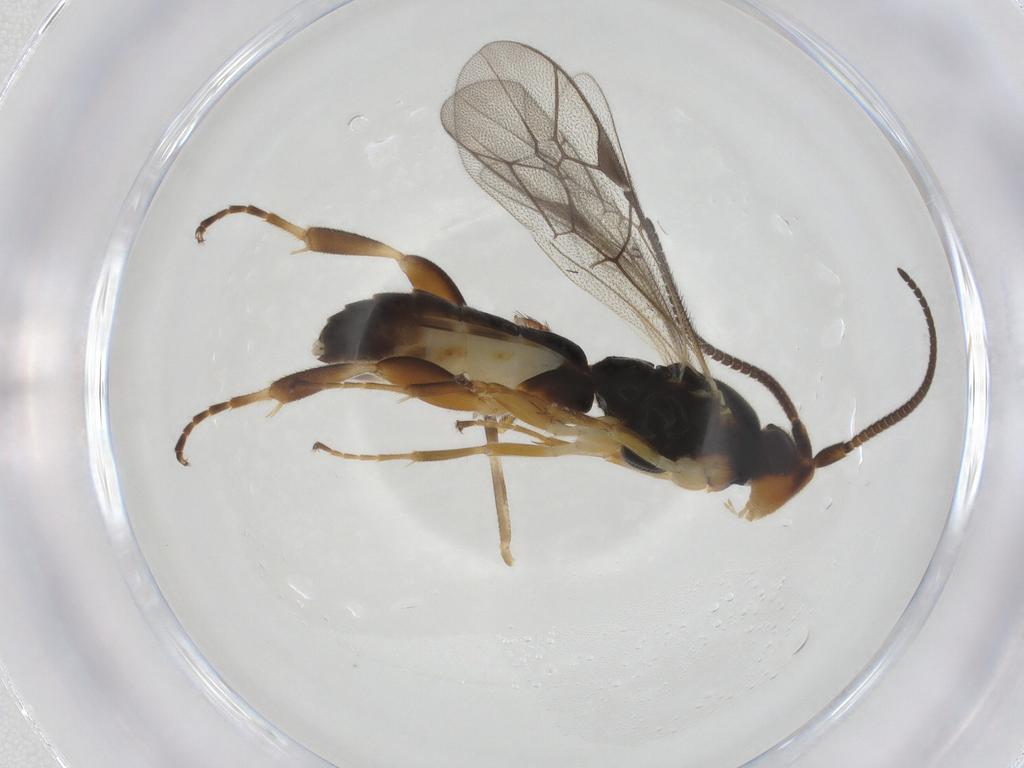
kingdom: Animalia
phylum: Arthropoda
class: Insecta
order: Hymenoptera
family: Ichneumonidae
